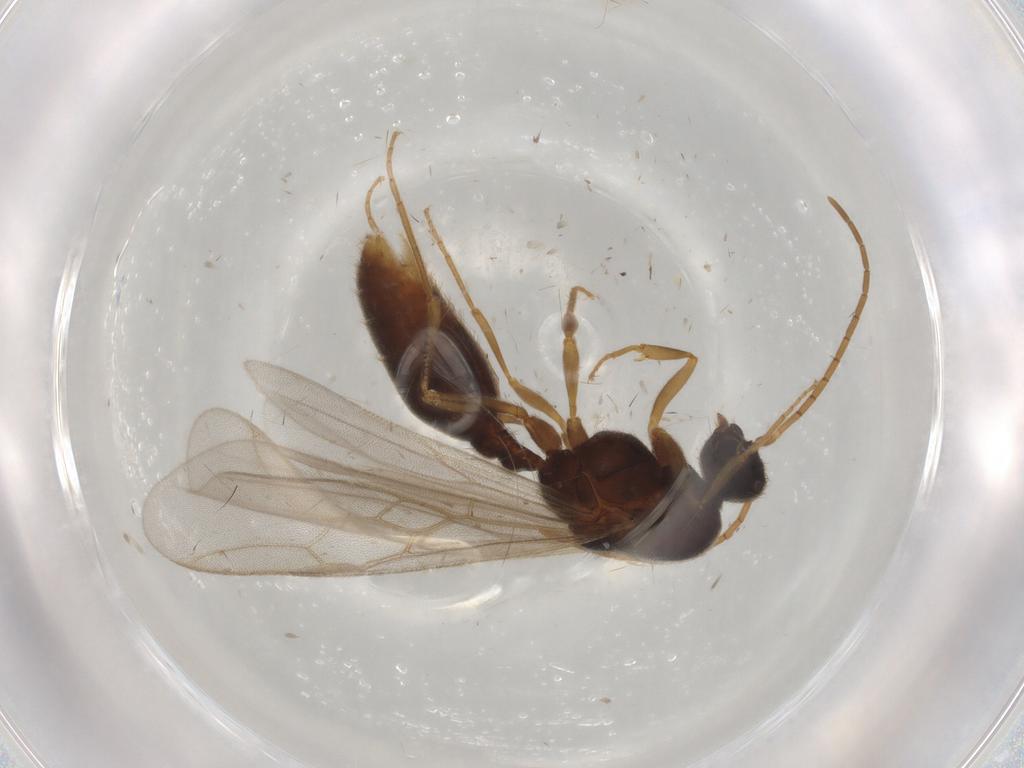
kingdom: Animalia
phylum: Arthropoda
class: Insecta
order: Hymenoptera
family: Formicidae
